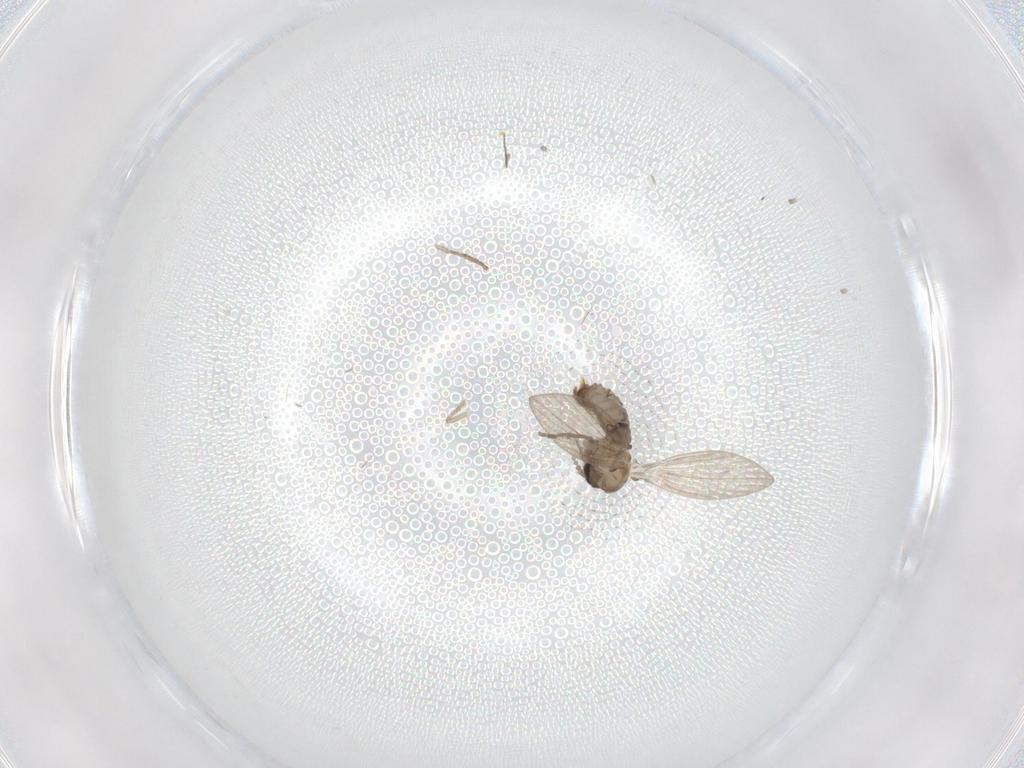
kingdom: Animalia
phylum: Arthropoda
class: Insecta
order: Diptera
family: Psychodidae
